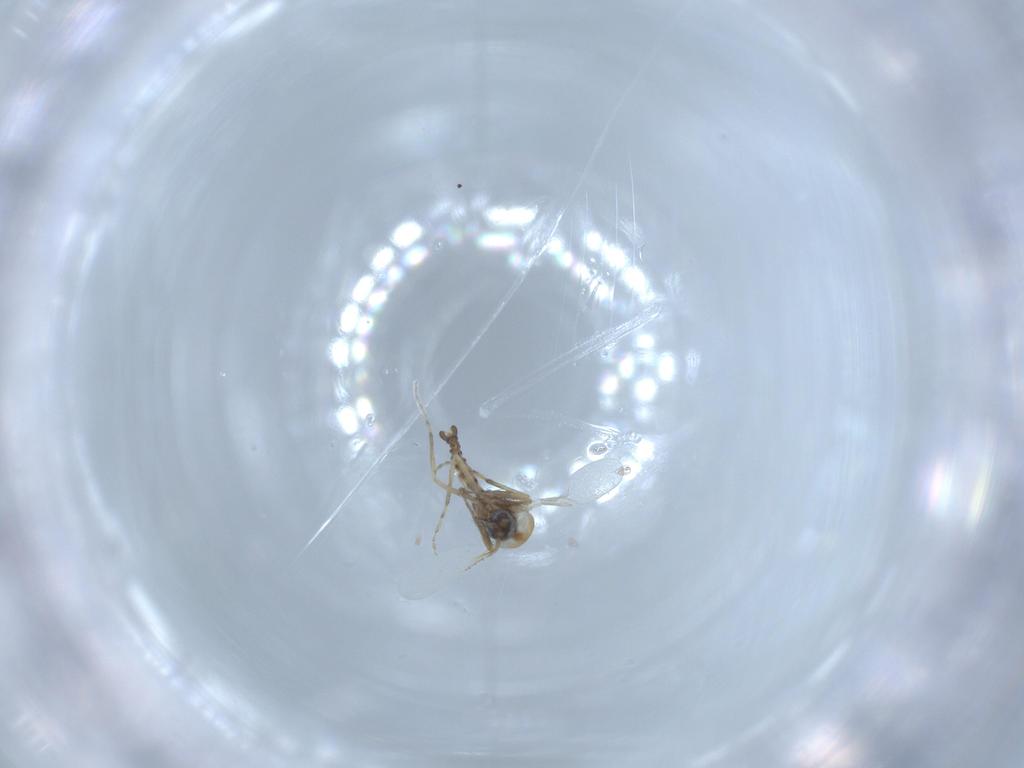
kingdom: Animalia
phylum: Arthropoda
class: Insecta
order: Diptera
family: Ceratopogonidae
